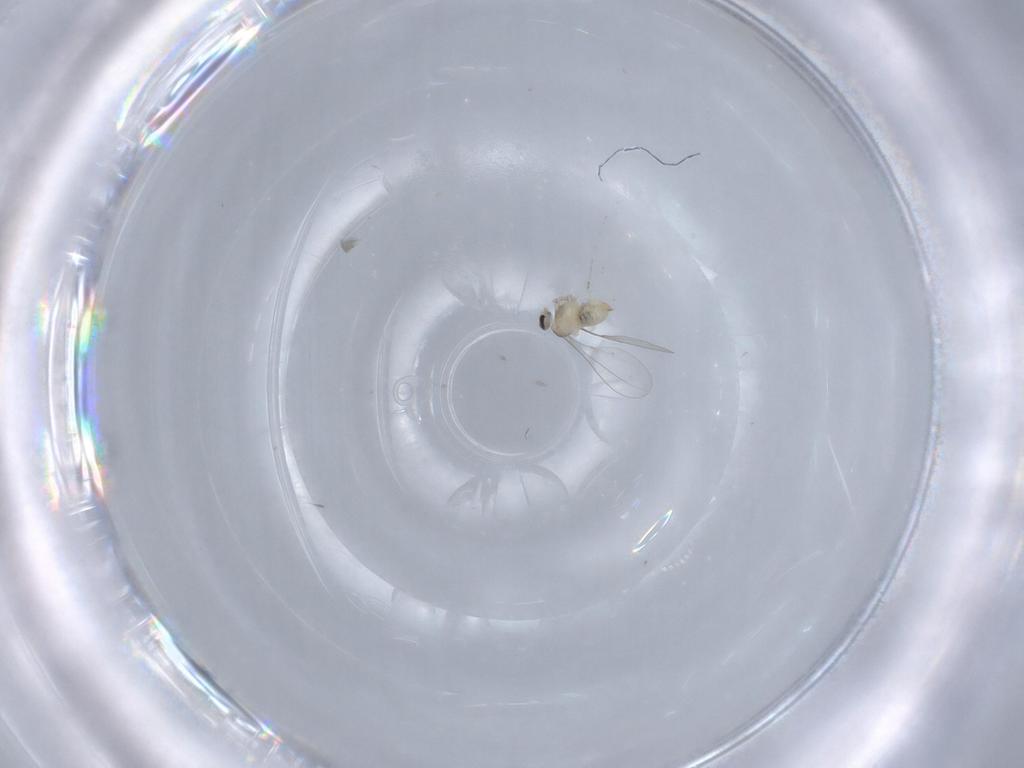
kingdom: Animalia
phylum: Arthropoda
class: Insecta
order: Diptera
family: Cecidomyiidae
